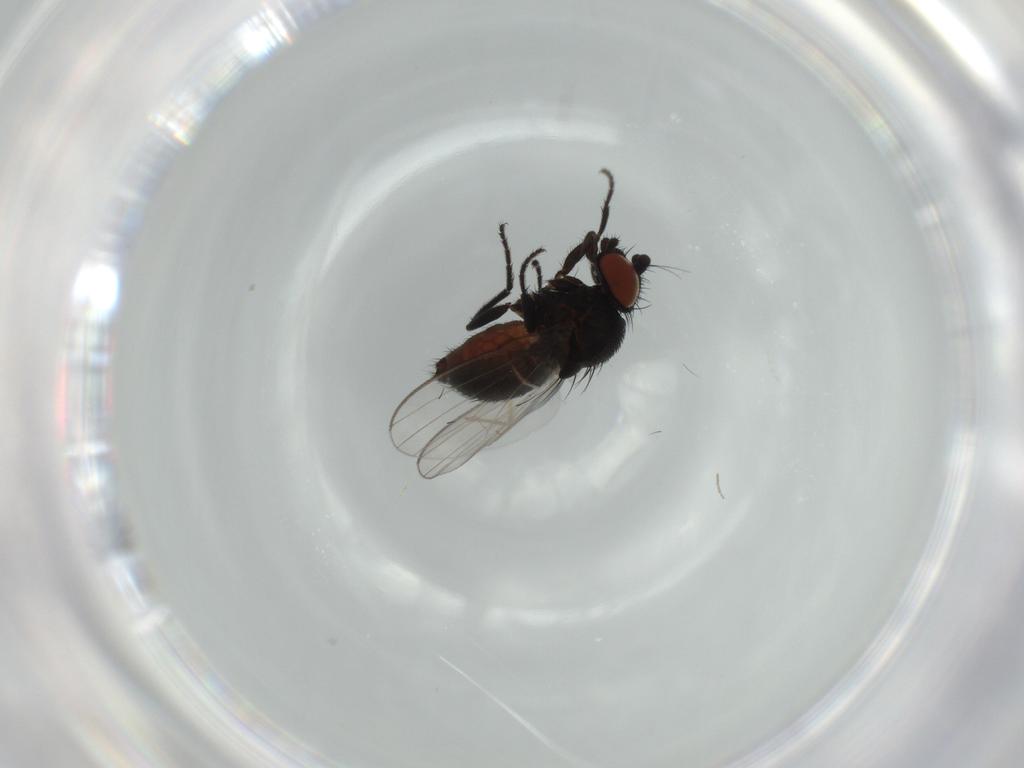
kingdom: Animalia
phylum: Arthropoda
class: Insecta
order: Diptera
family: Milichiidae
